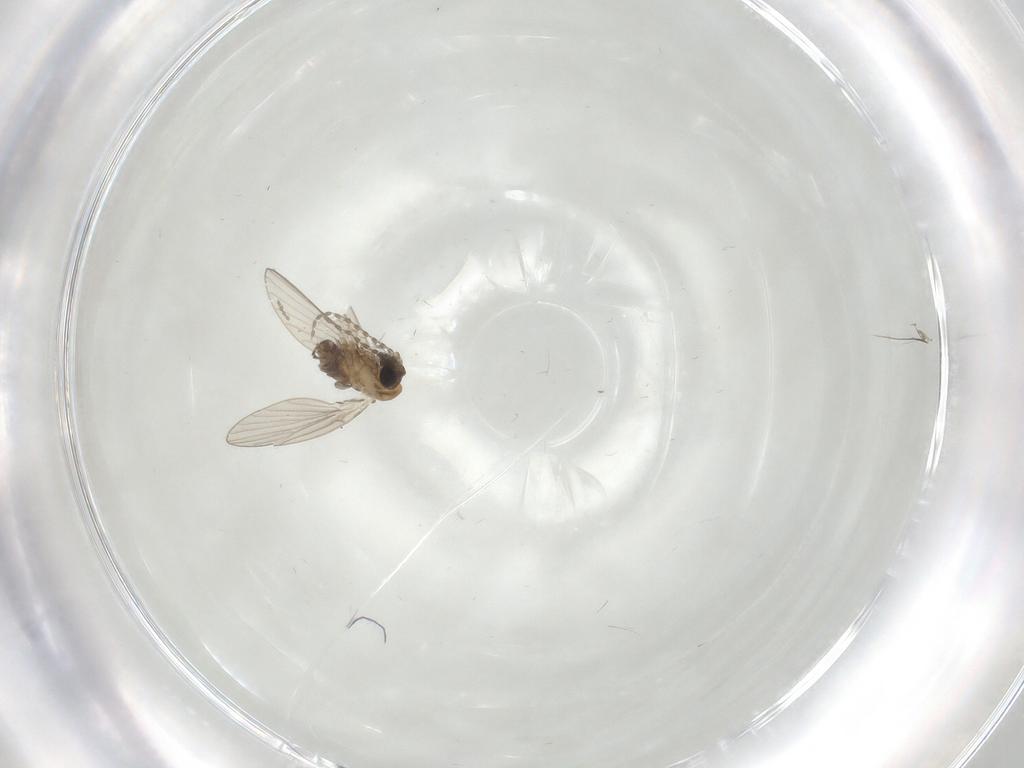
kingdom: Animalia
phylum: Arthropoda
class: Insecta
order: Diptera
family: Psychodidae
